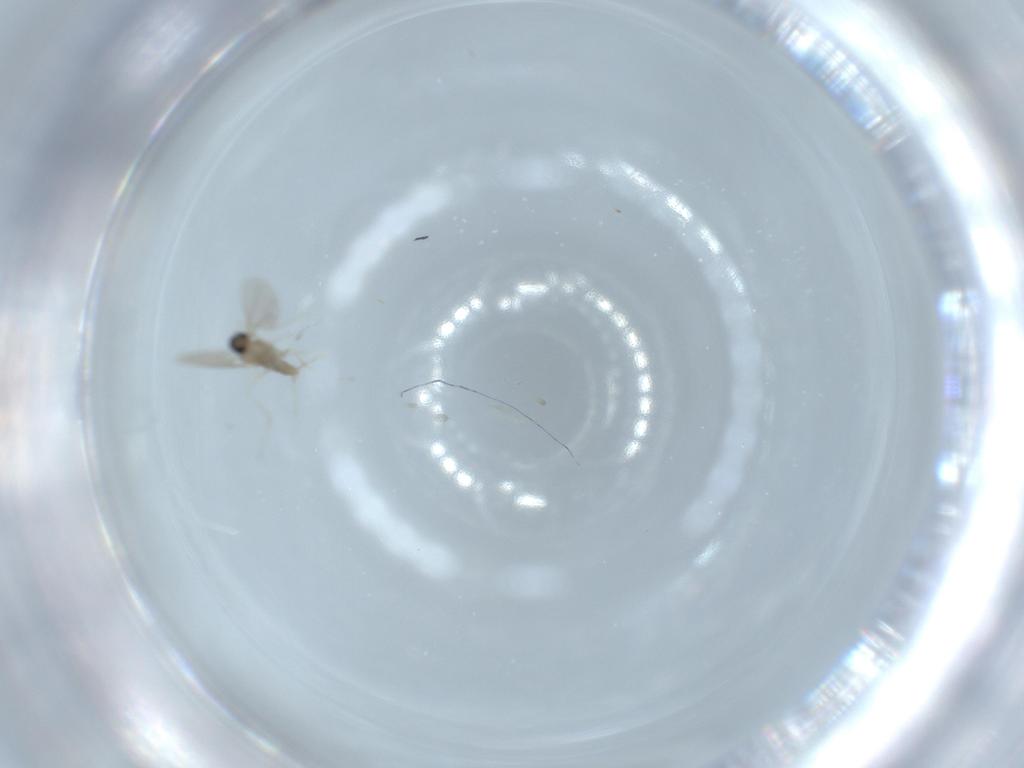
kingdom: Animalia
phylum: Arthropoda
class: Insecta
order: Diptera
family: Cecidomyiidae
